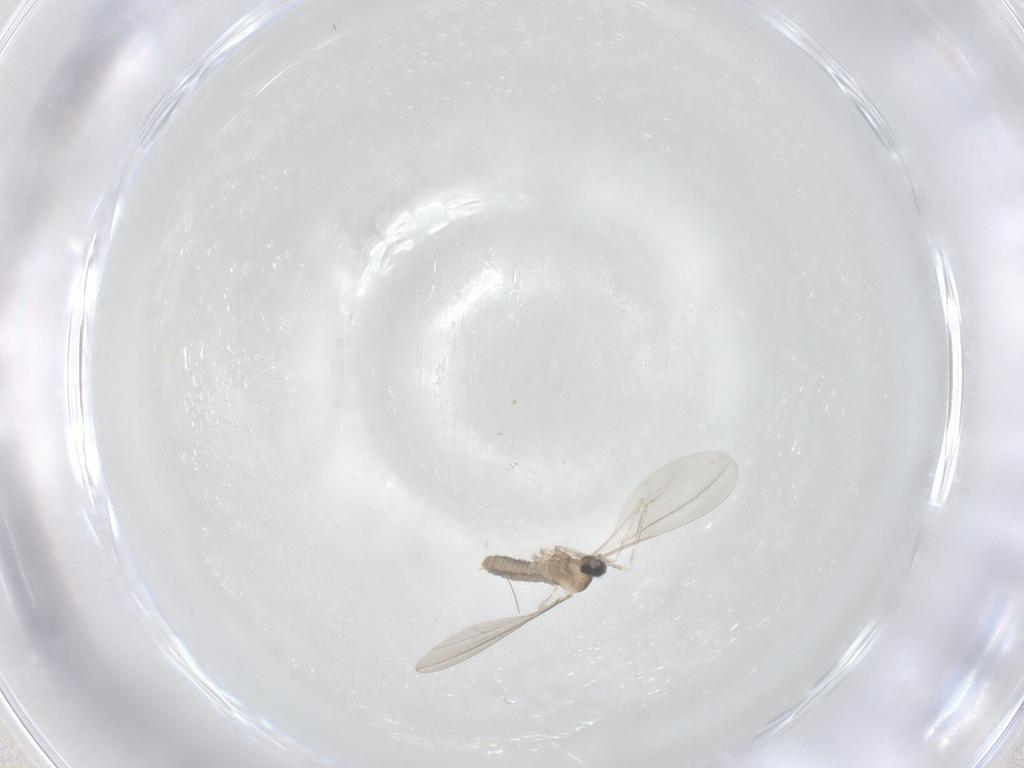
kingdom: Animalia
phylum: Arthropoda
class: Insecta
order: Diptera
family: Cecidomyiidae
